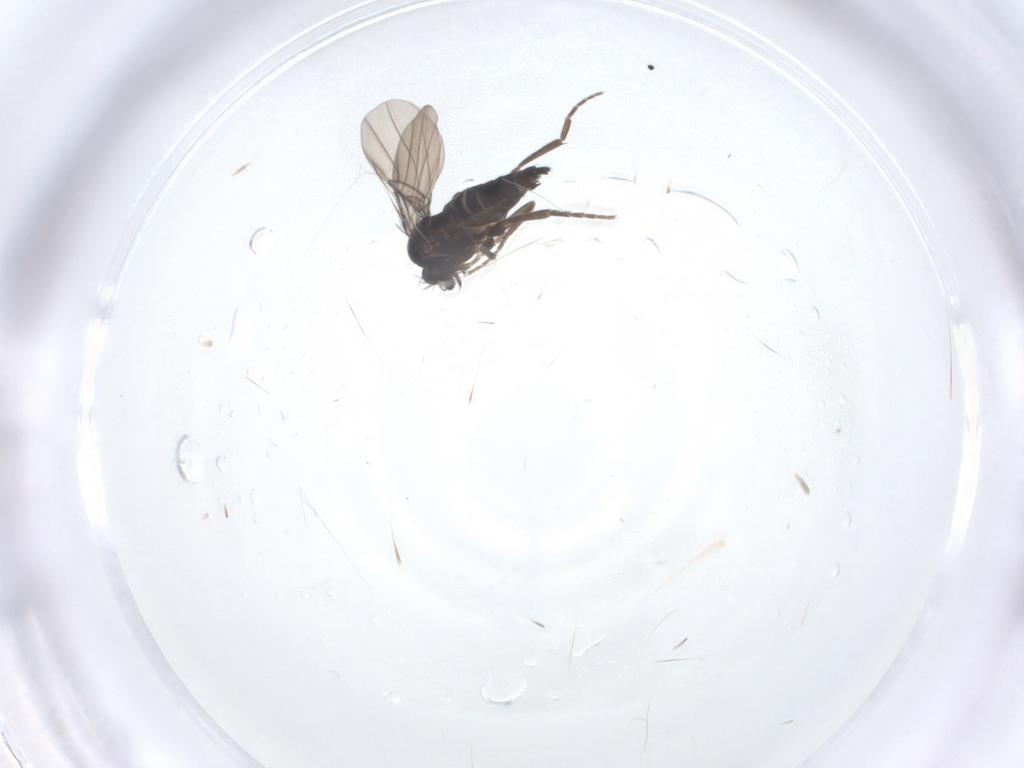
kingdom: Animalia
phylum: Arthropoda
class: Insecta
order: Diptera
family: Phoridae
